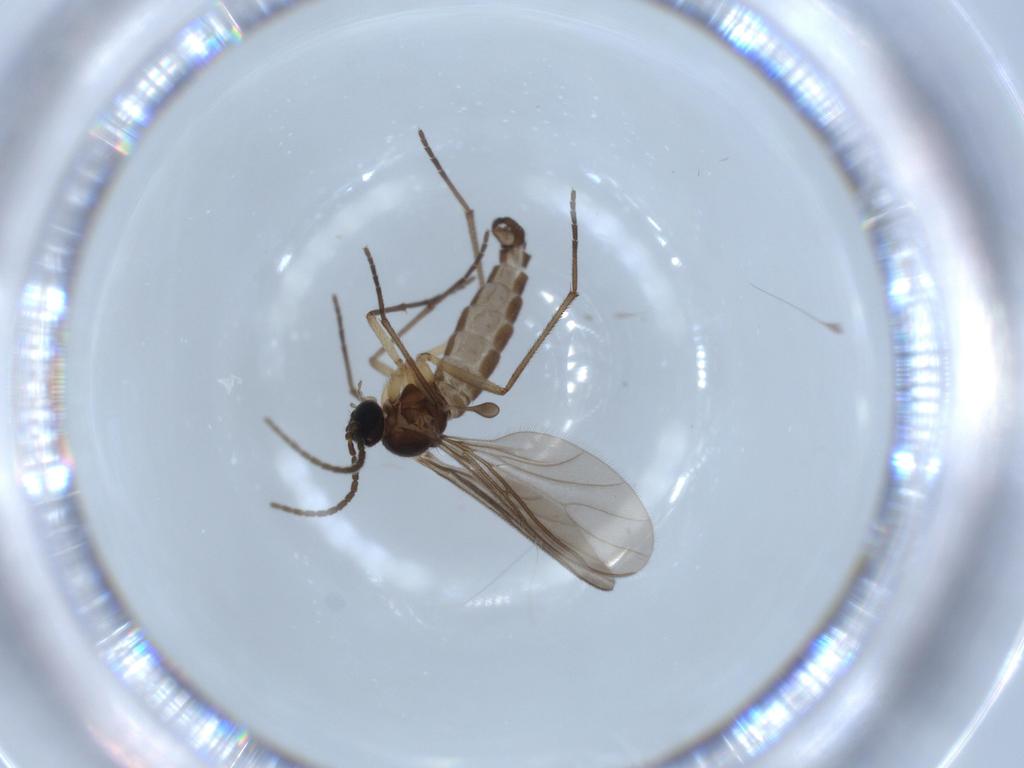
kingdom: Animalia
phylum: Arthropoda
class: Insecta
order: Diptera
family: Sciaridae
